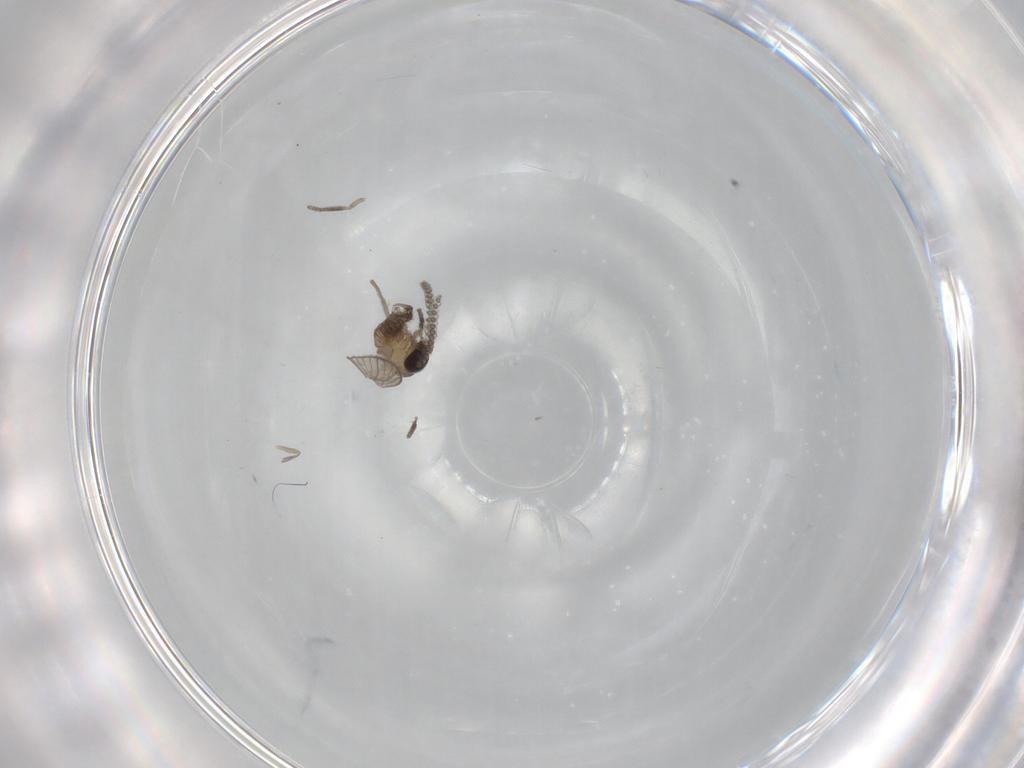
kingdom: Animalia
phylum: Arthropoda
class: Insecta
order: Diptera
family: Psychodidae
